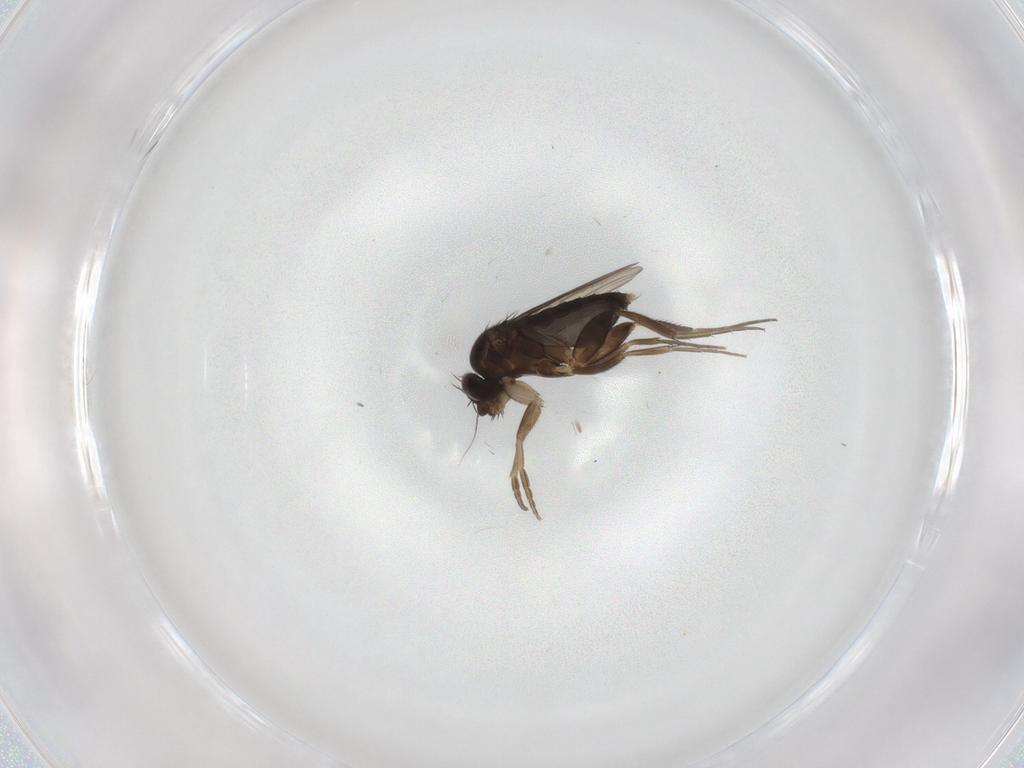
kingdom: Animalia
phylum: Arthropoda
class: Insecta
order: Diptera
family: Phoridae
